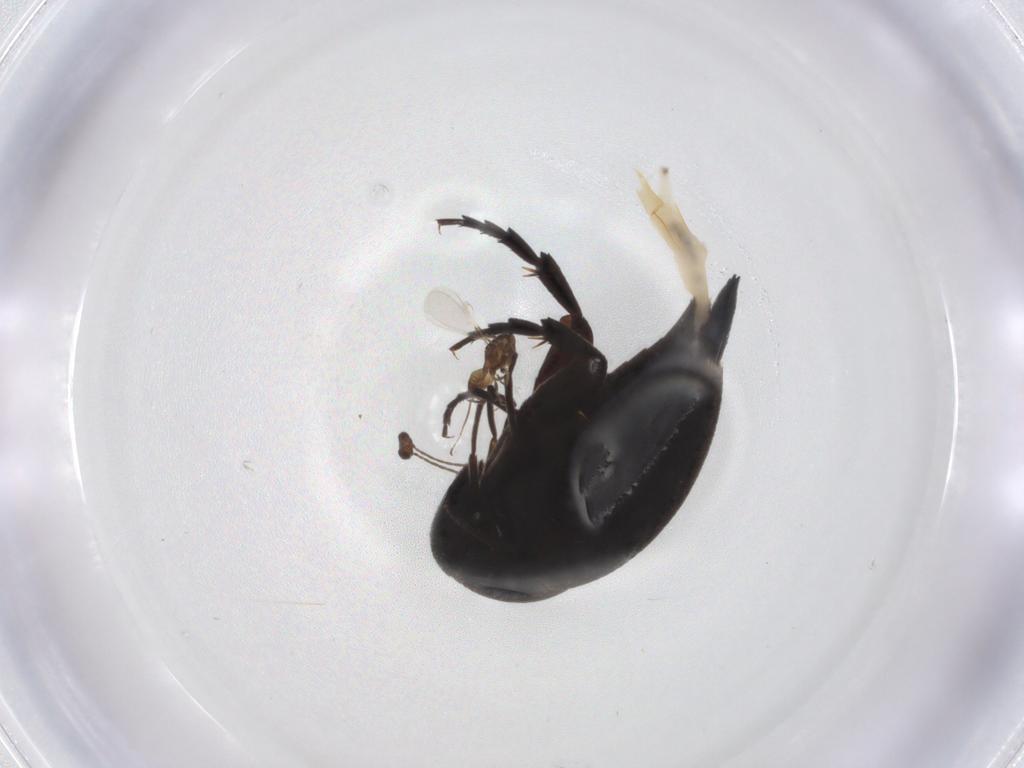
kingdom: Animalia
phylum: Arthropoda
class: Insecta
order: Coleoptera
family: Mordellidae
